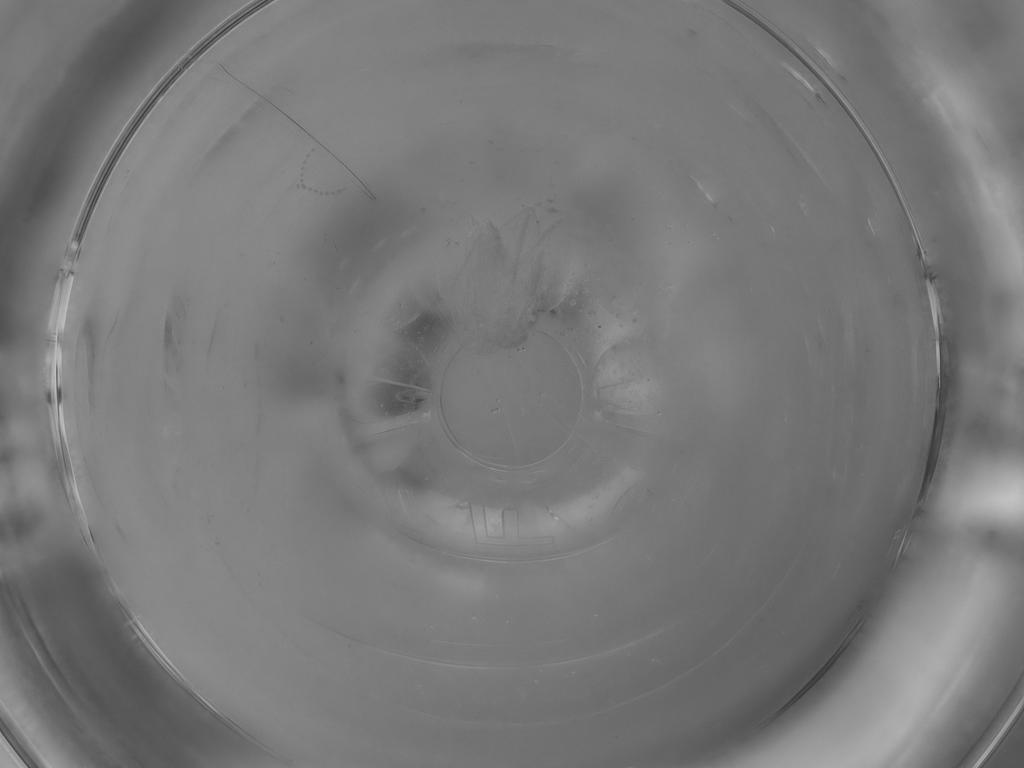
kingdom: Animalia
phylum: Arthropoda
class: Insecta
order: Diptera
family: Psychodidae
